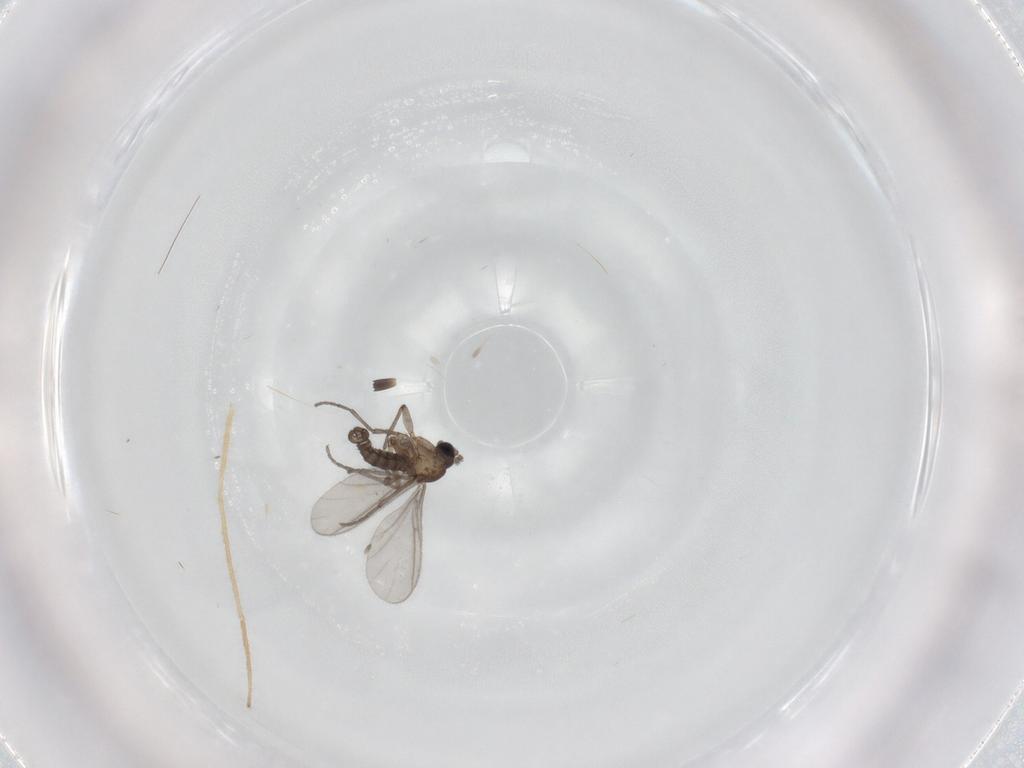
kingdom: Animalia
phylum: Arthropoda
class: Insecta
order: Diptera
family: Sciaridae
